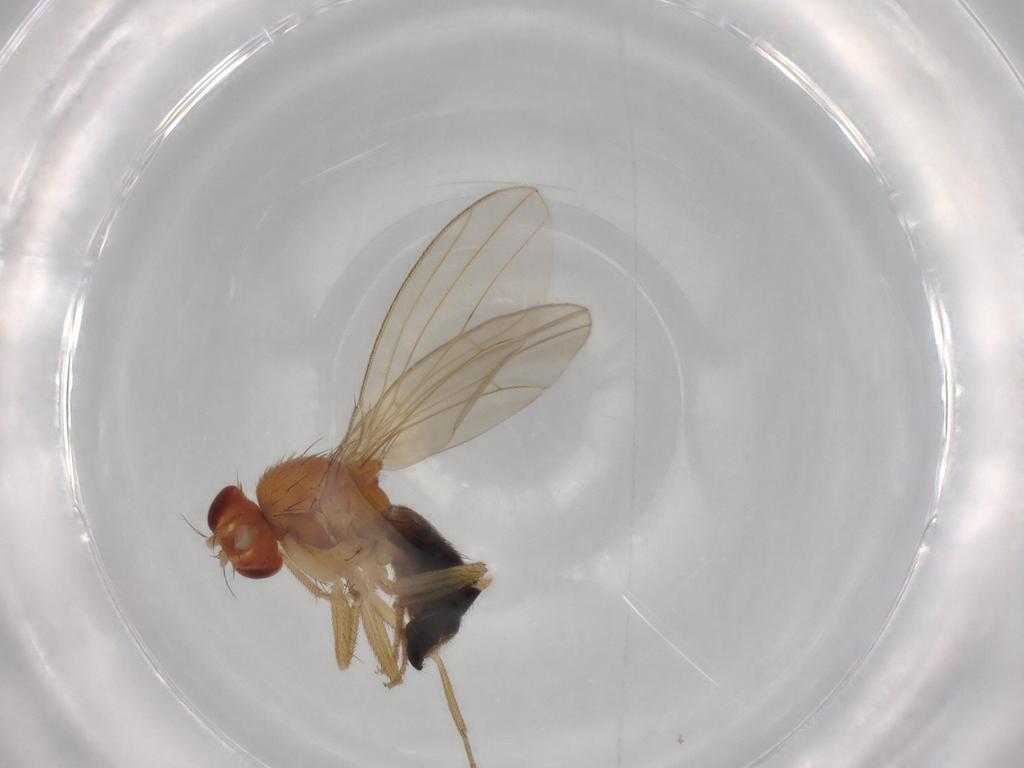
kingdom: Animalia
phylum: Arthropoda
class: Insecta
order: Diptera
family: Drosophilidae
